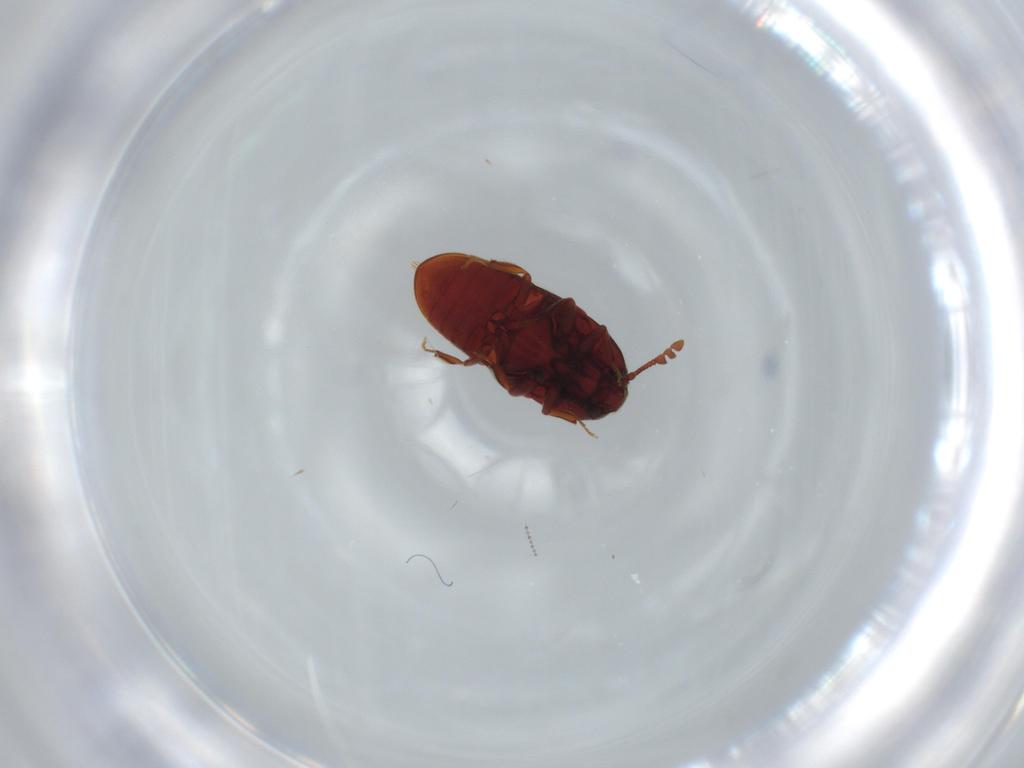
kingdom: Animalia
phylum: Arthropoda
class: Insecta
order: Coleoptera
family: Throscidae
